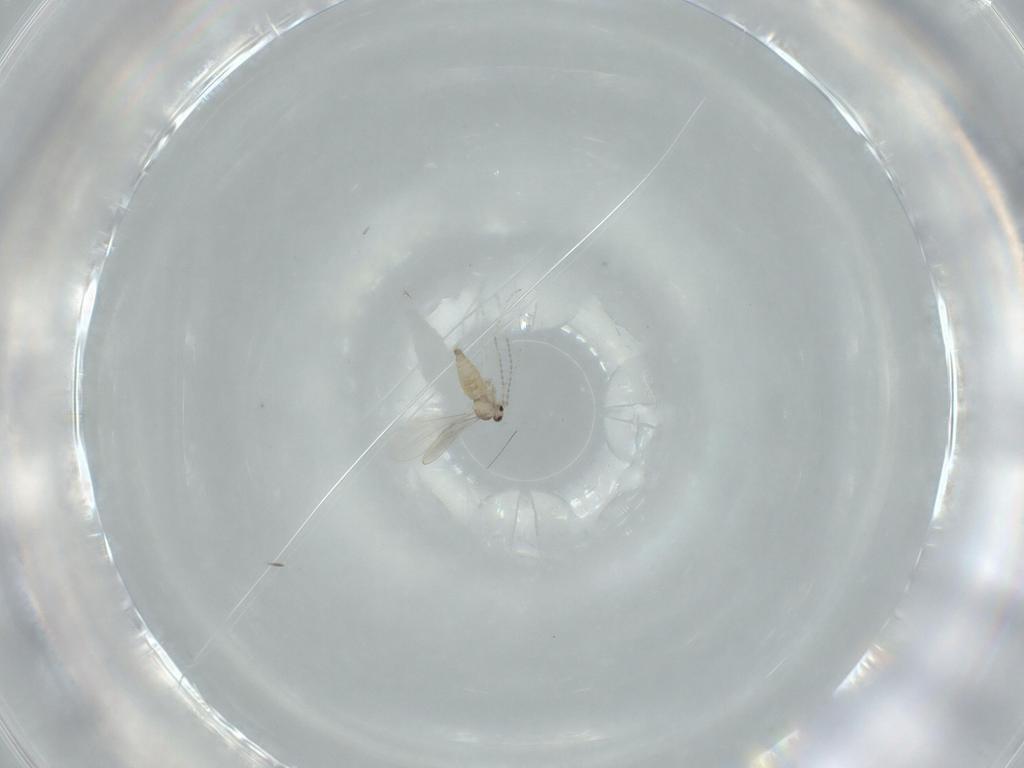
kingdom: Animalia
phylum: Arthropoda
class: Insecta
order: Diptera
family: Cecidomyiidae
